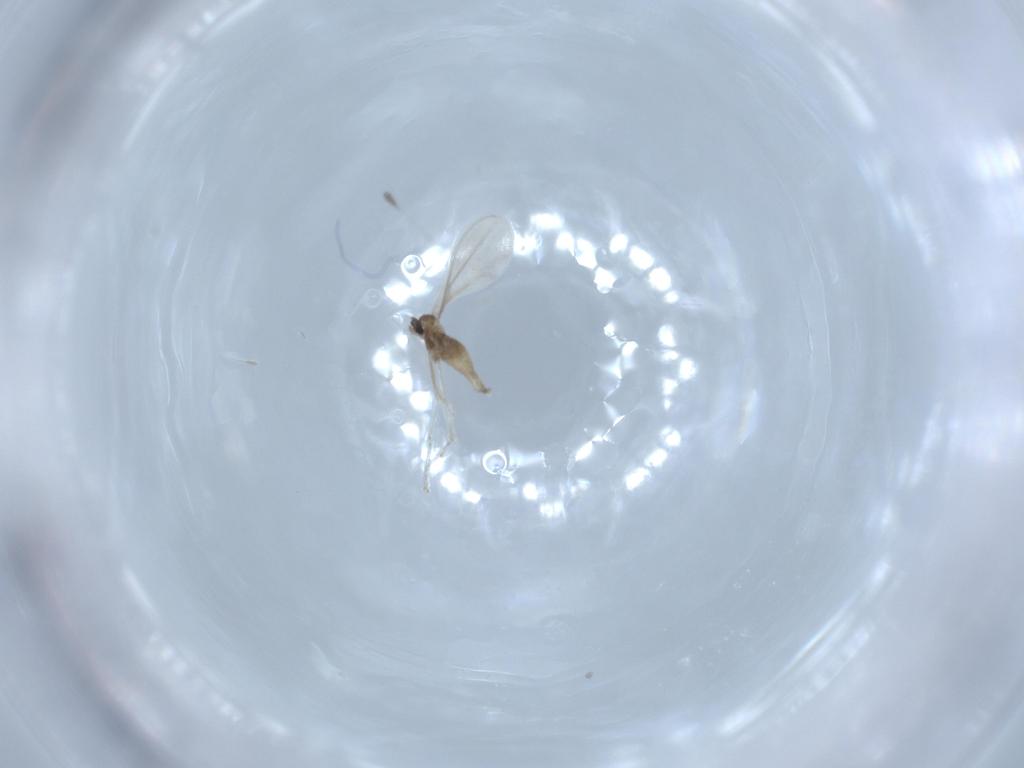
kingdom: Animalia
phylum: Arthropoda
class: Insecta
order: Diptera
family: Cecidomyiidae
